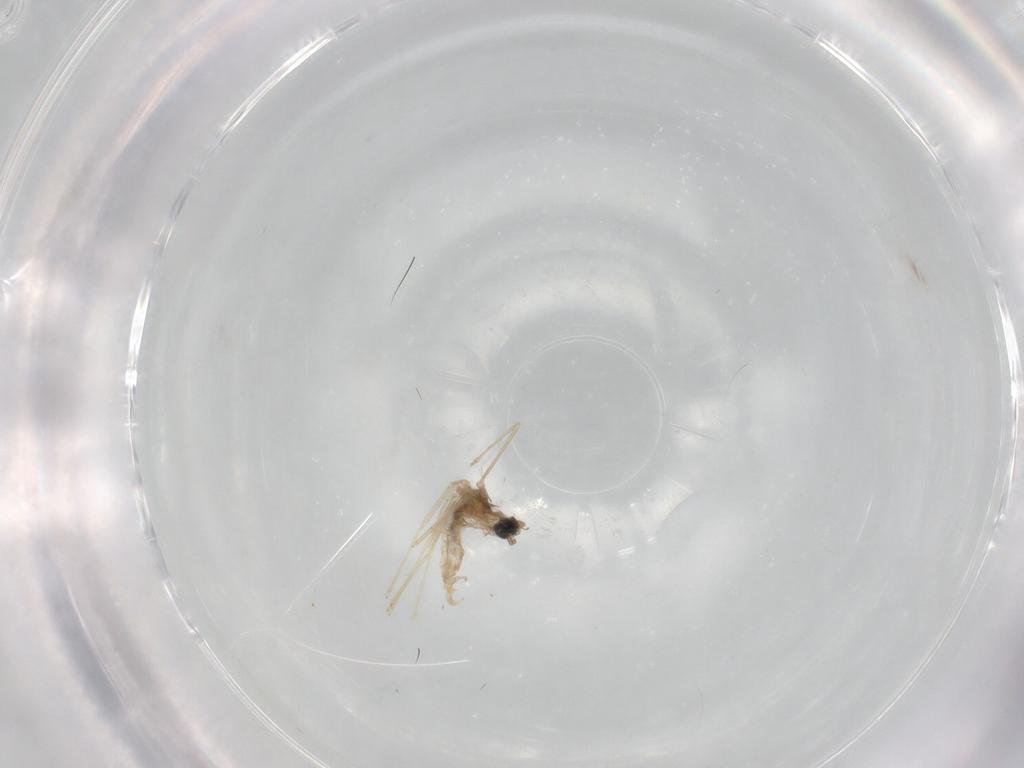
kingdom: Animalia
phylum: Arthropoda
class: Insecta
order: Diptera
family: Cecidomyiidae
